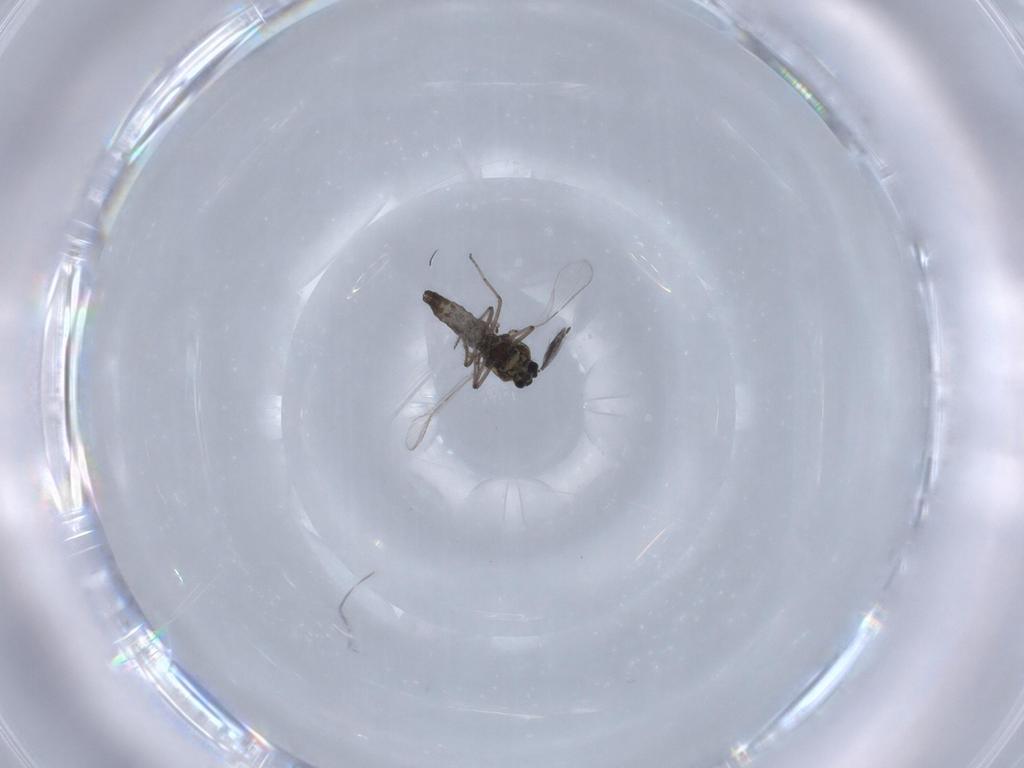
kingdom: Animalia
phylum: Arthropoda
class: Insecta
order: Diptera
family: Ceratopogonidae
